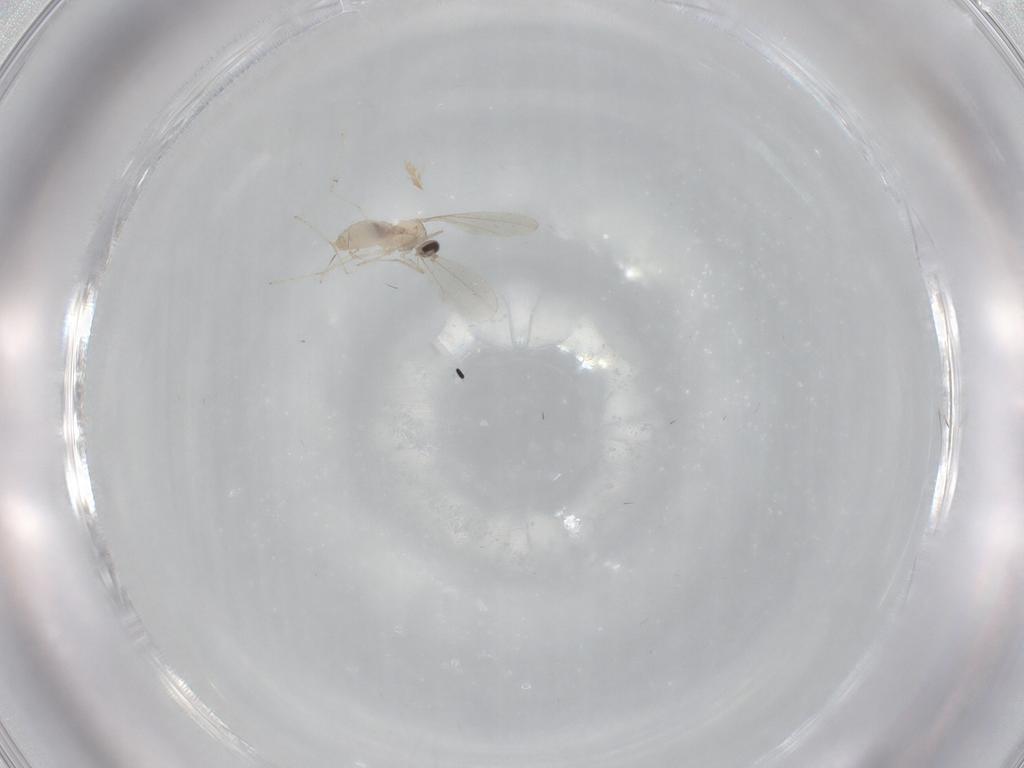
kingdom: Animalia
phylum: Arthropoda
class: Insecta
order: Diptera
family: Cecidomyiidae
